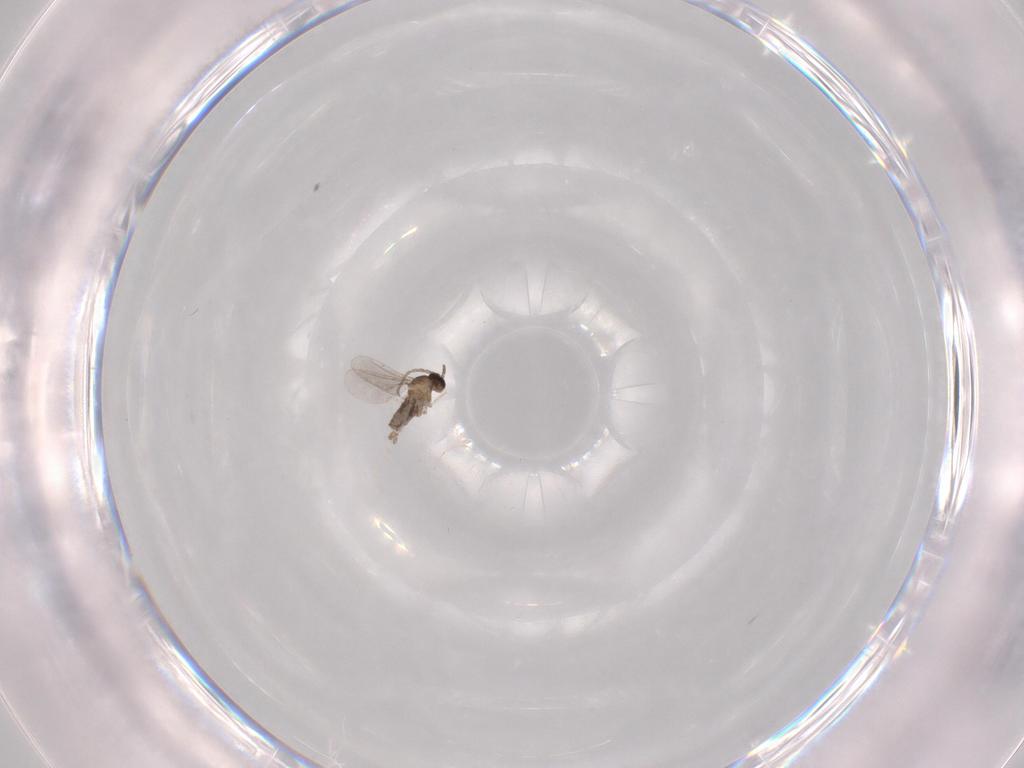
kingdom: Animalia
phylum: Arthropoda
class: Insecta
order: Diptera
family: Cecidomyiidae
